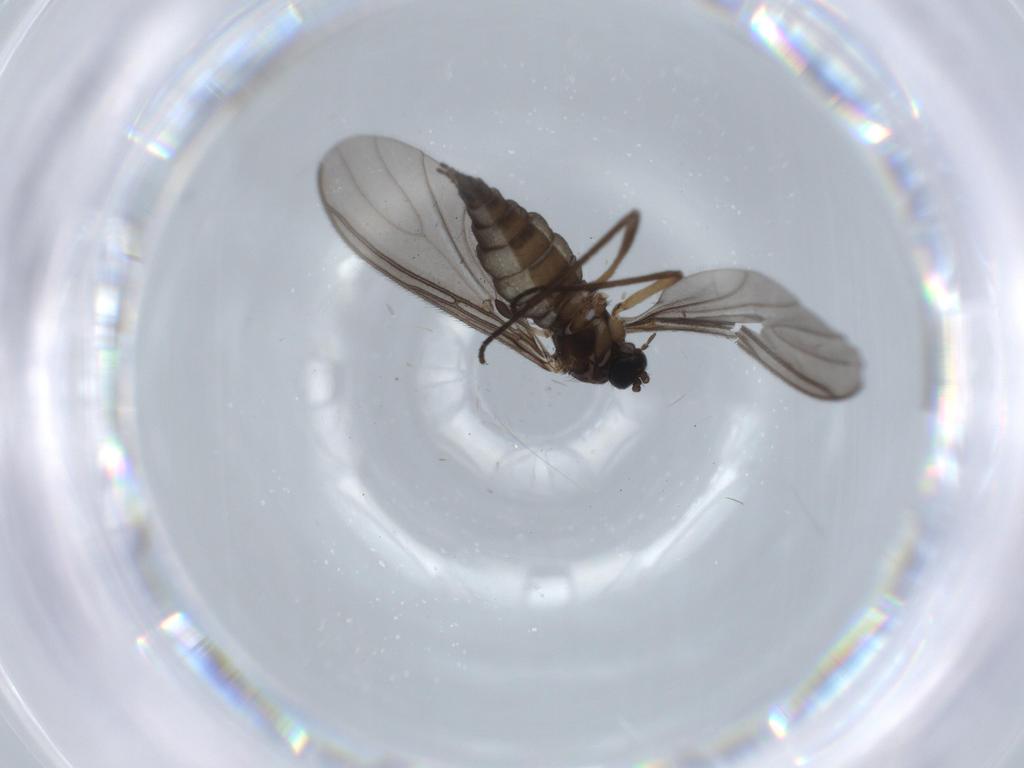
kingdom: Animalia
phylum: Arthropoda
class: Insecta
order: Diptera
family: Sciaridae
